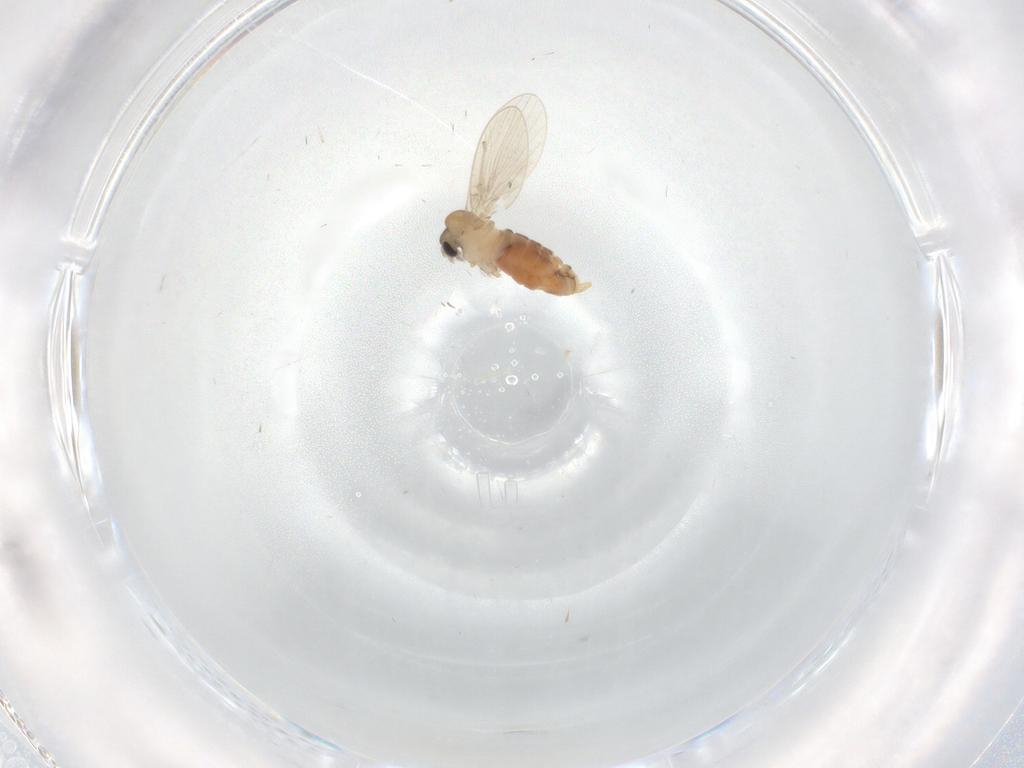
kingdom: Animalia
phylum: Arthropoda
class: Insecta
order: Diptera
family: Psychodidae
